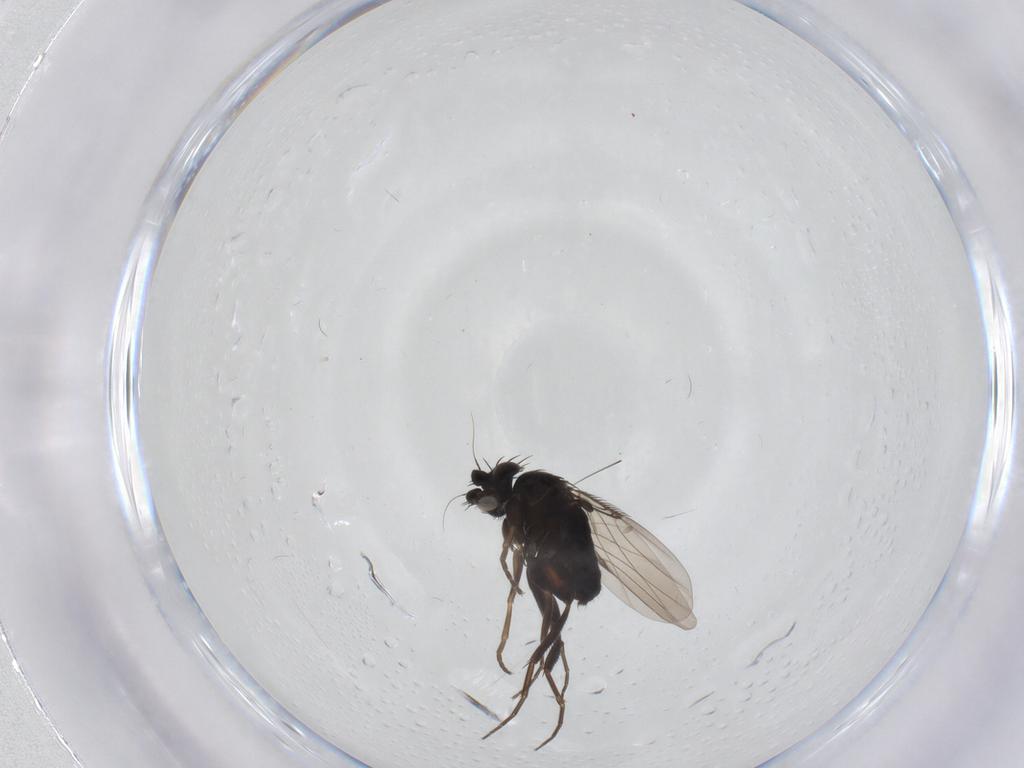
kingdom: Animalia
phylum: Arthropoda
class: Insecta
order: Diptera
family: Phoridae
